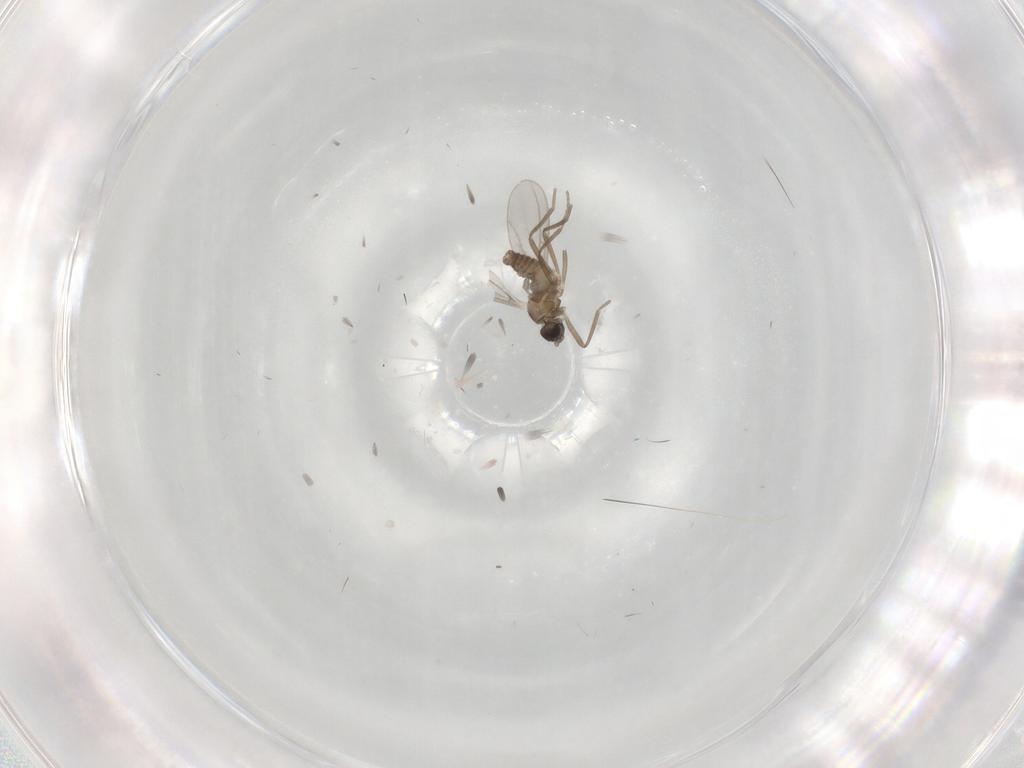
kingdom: Animalia
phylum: Arthropoda
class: Insecta
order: Diptera
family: Cecidomyiidae
